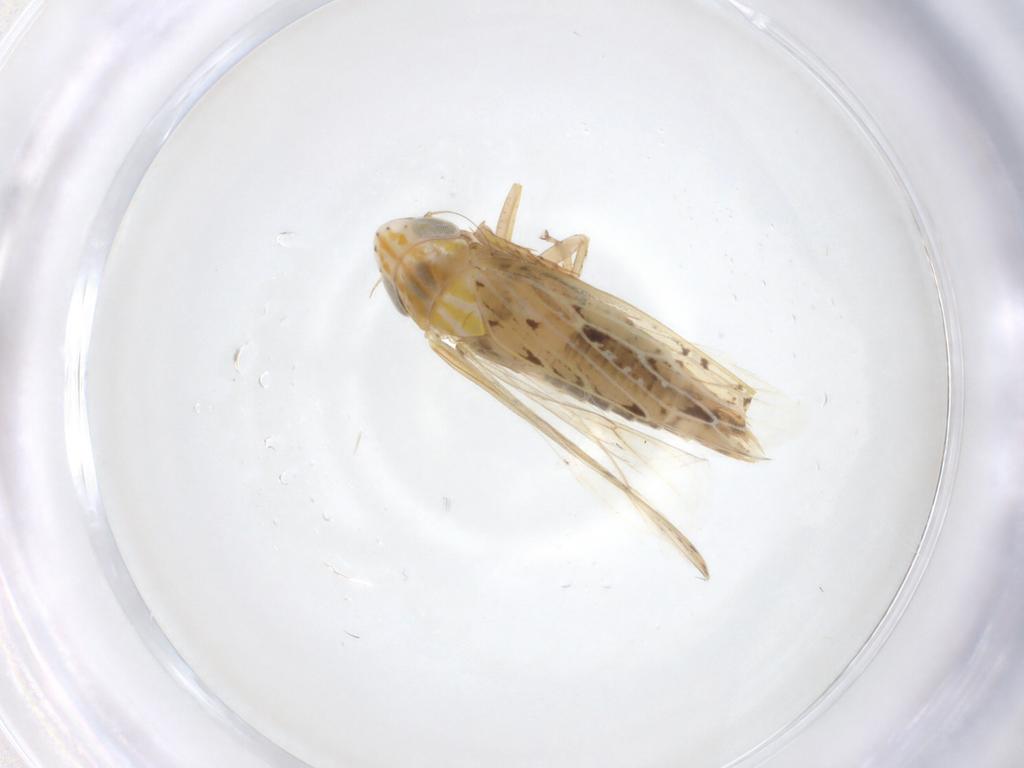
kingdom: Animalia
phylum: Arthropoda
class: Insecta
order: Hemiptera
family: Cicadellidae
